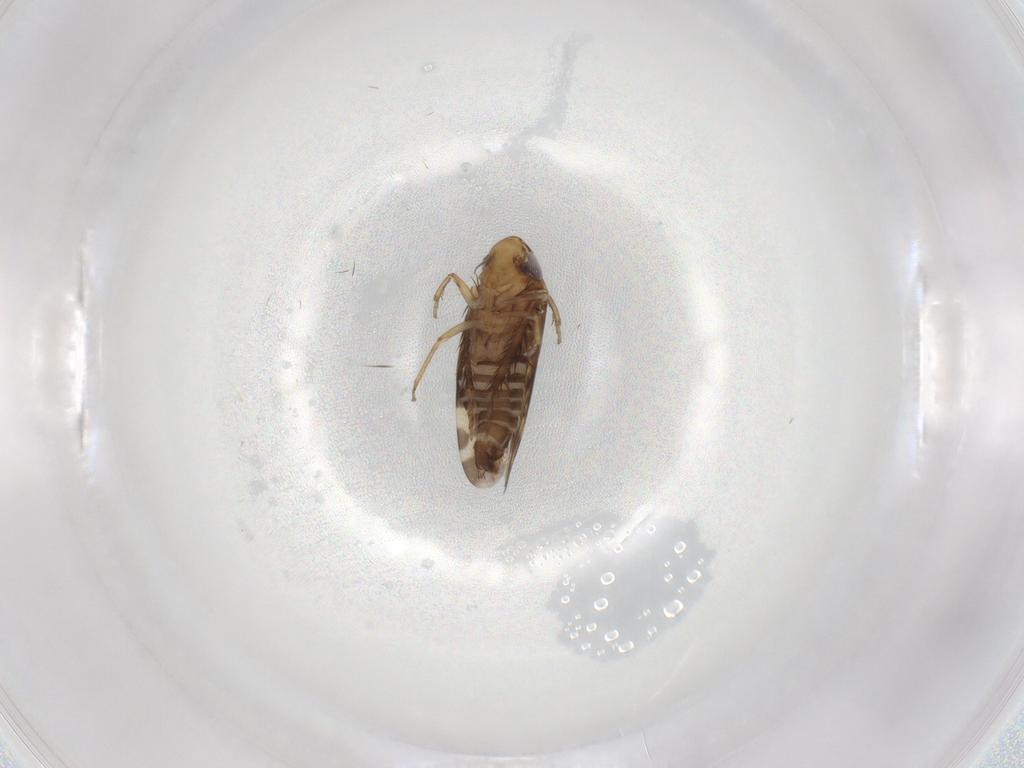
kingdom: Animalia
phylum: Arthropoda
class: Insecta
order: Hemiptera
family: Cicadellidae
